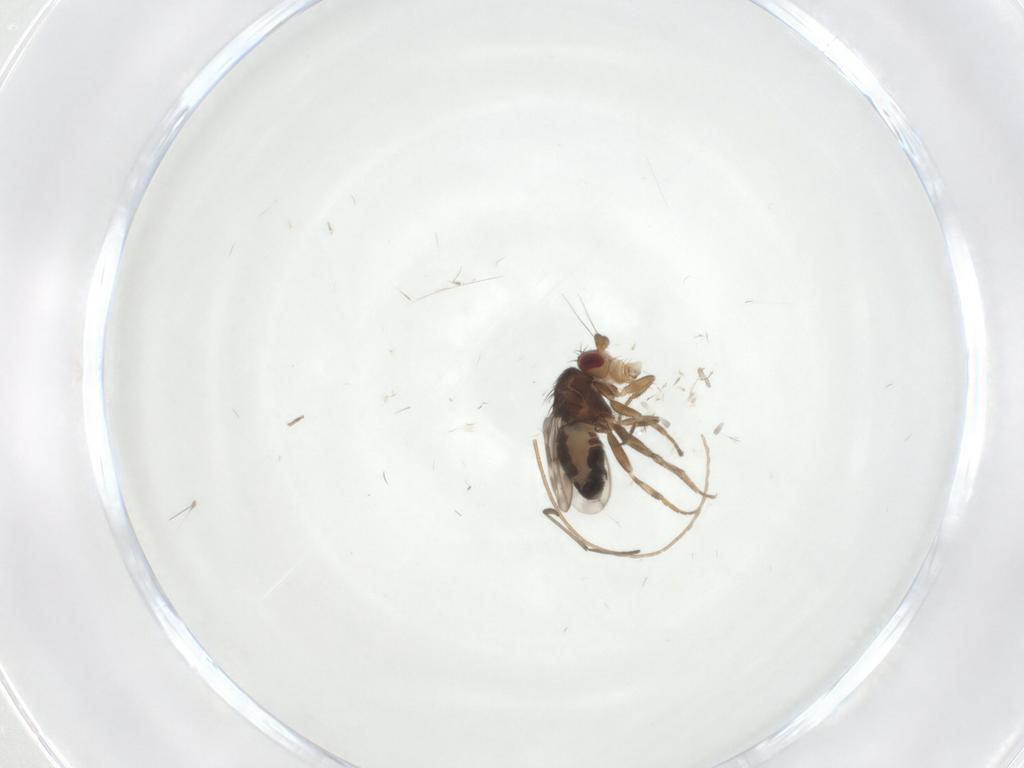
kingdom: Animalia
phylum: Arthropoda
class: Insecta
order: Diptera
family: Sphaeroceridae
